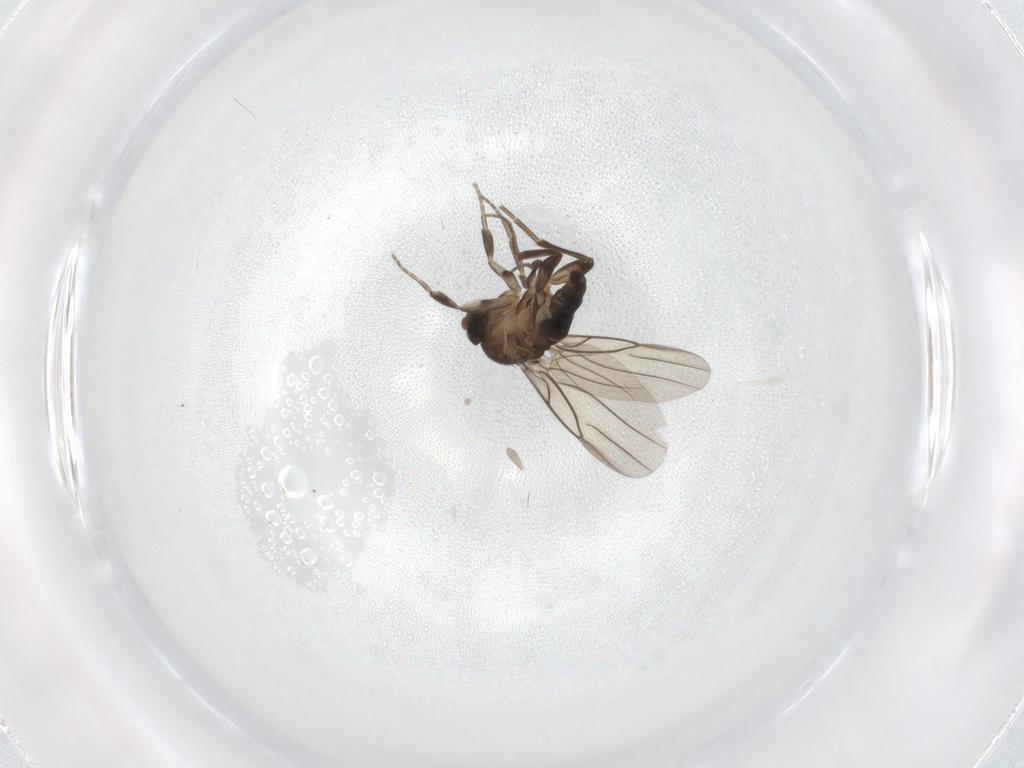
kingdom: Animalia
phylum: Arthropoda
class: Insecta
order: Diptera
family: Phoridae
